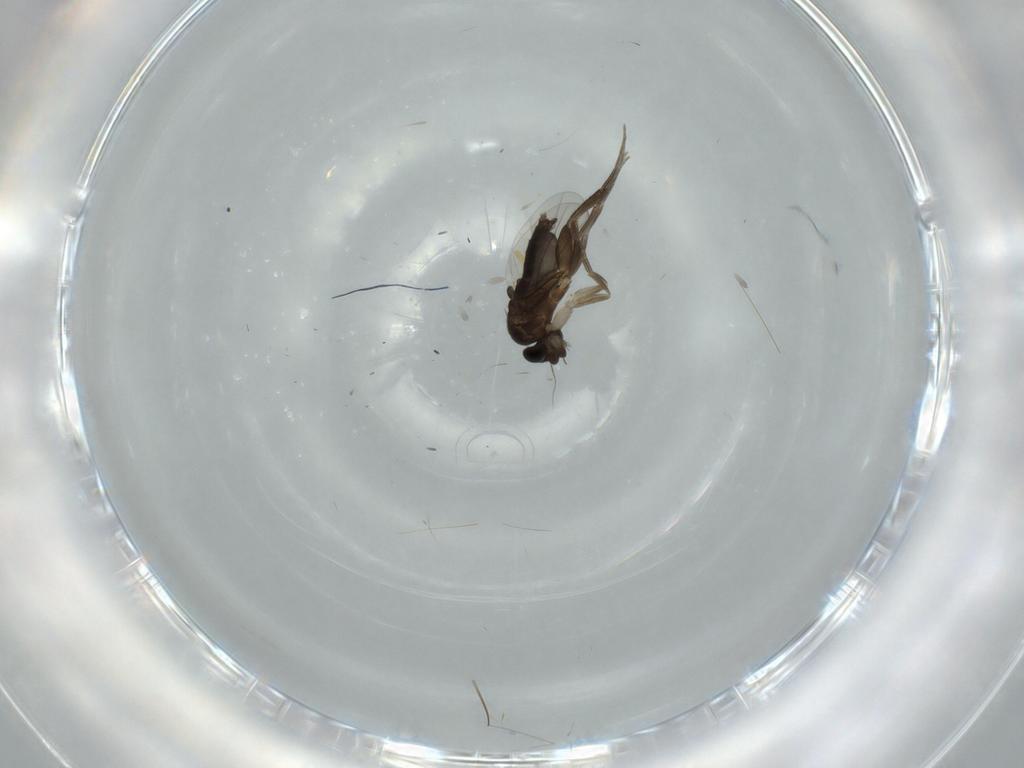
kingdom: Animalia
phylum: Arthropoda
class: Insecta
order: Diptera
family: Phoridae
